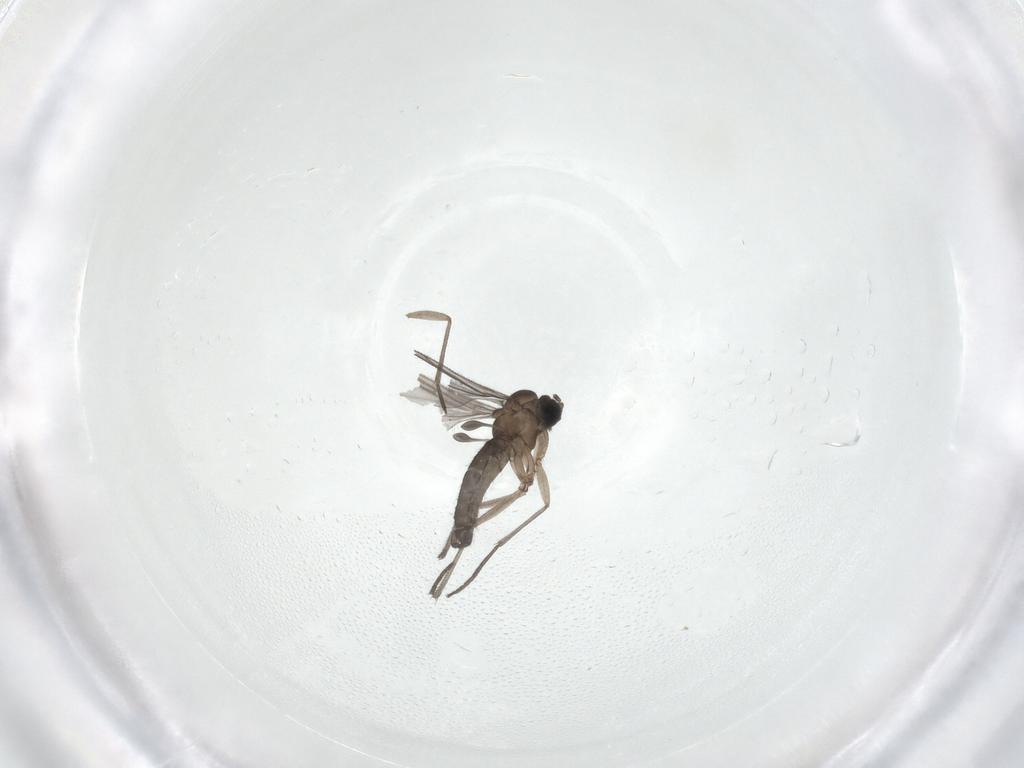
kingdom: Animalia
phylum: Arthropoda
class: Insecta
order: Diptera
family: Sciaridae
